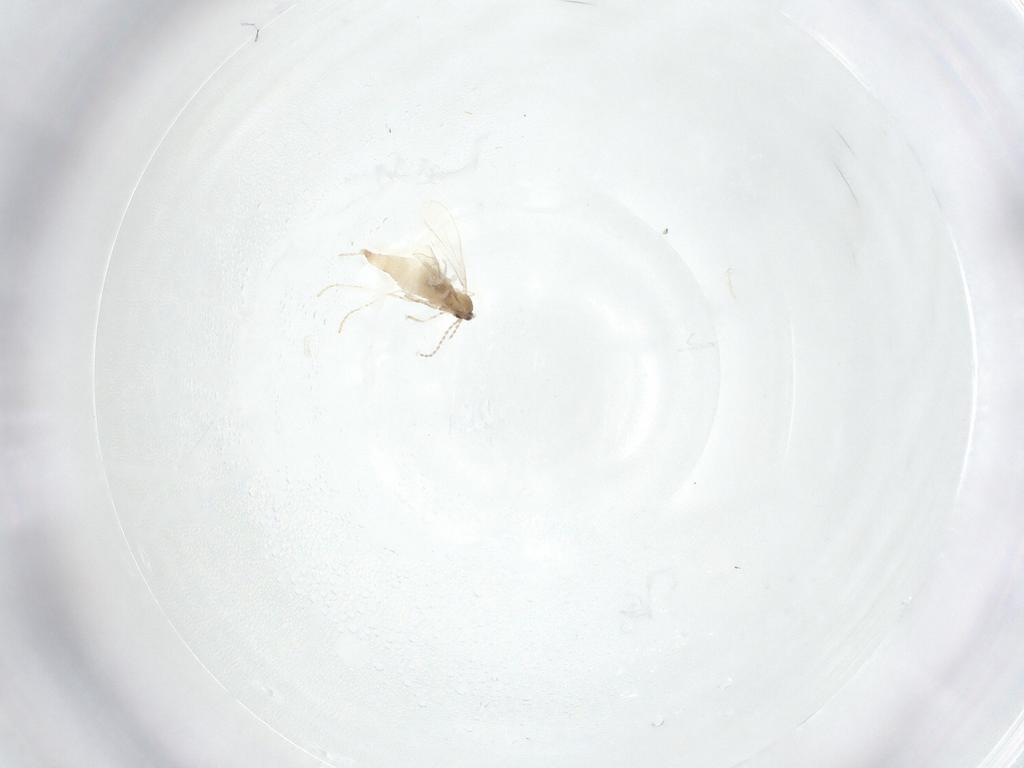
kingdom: Animalia
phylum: Arthropoda
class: Insecta
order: Diptera
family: Cecidomyiidae
